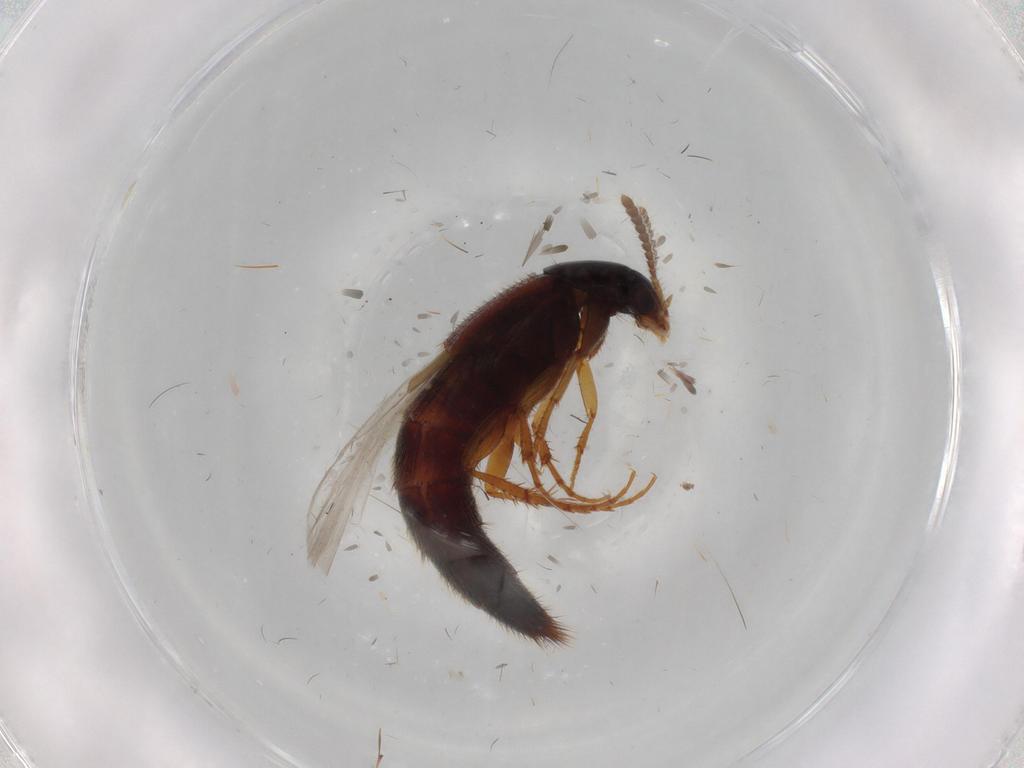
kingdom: Animalia
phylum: Arthropoda
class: Insecta
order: Coleoptera
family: Staphylinidae
